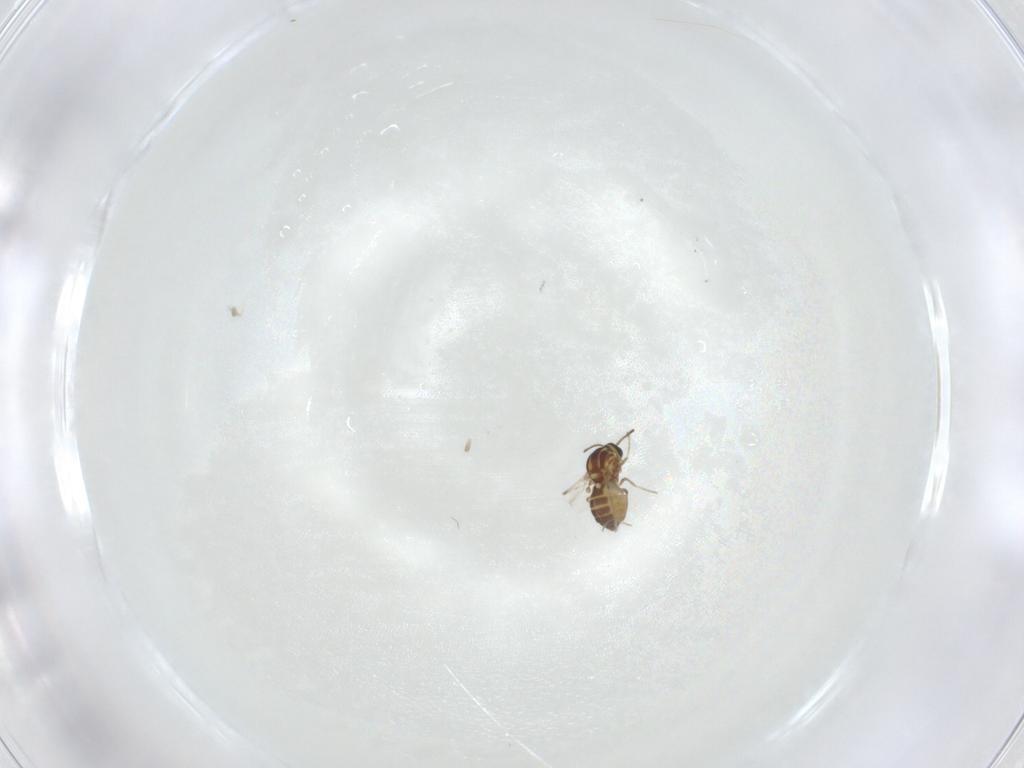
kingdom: Animalia
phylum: Arthropoda
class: Insecta
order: Diptera
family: Ceratopogonidae
